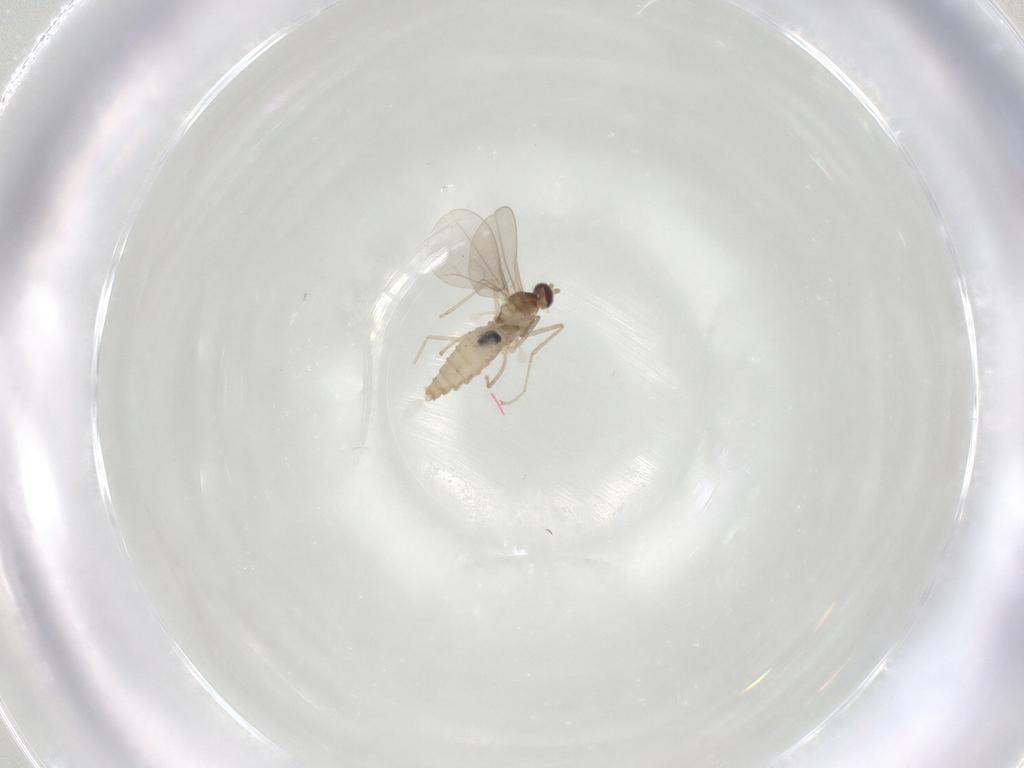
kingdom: Animalia
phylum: Arthropoda
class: Insecta
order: Diptera
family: Cecidomyiidae
